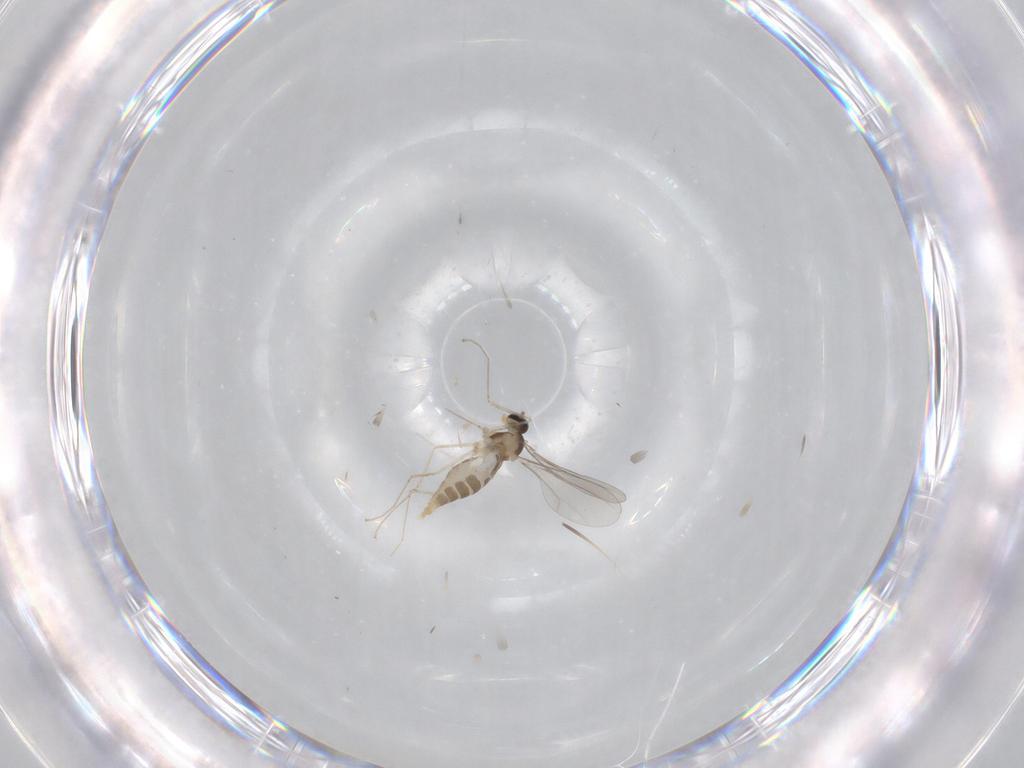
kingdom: Animalia
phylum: Arthropoda
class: Insecta
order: Diptera
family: Cecidomyiidae
